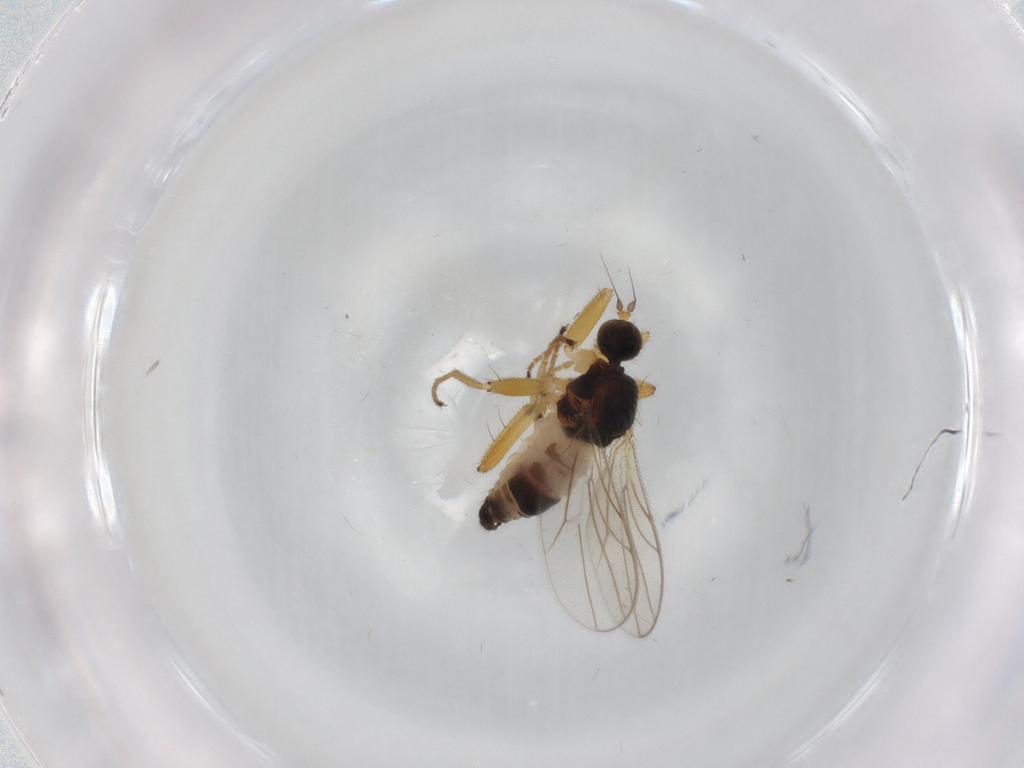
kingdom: Animalia
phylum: Arthropoda
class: Insecta
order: Diptera
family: Hybotidae
